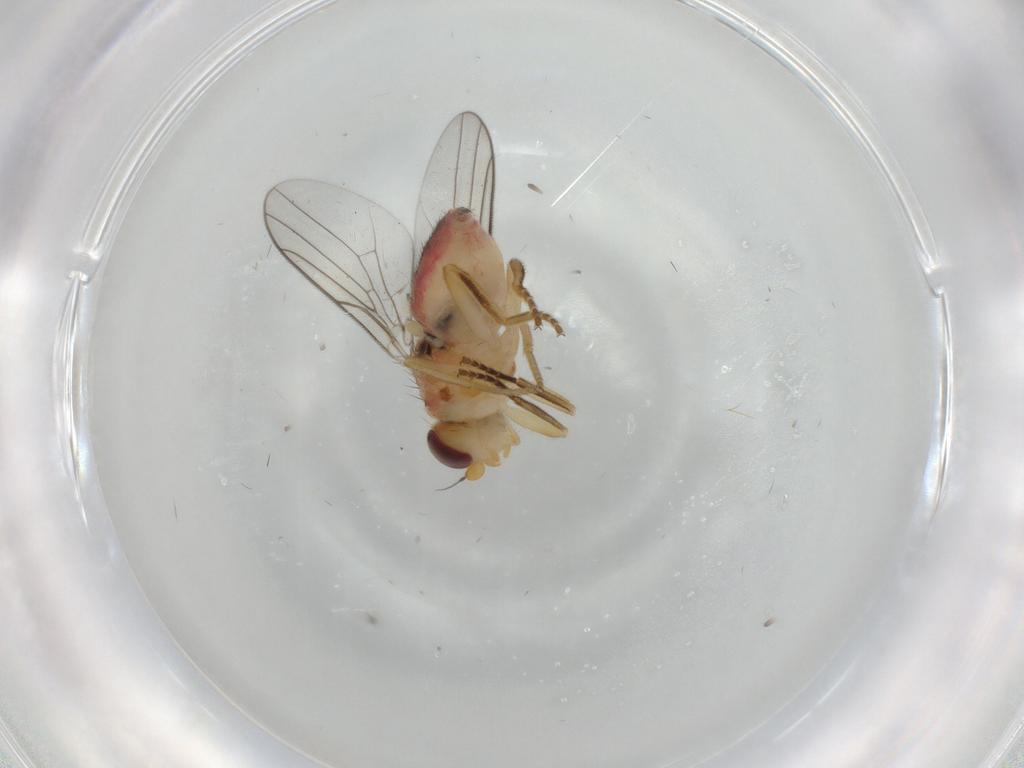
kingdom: Animalia
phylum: Arthropoda
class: Insecta
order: Diptera
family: Chloropidae
